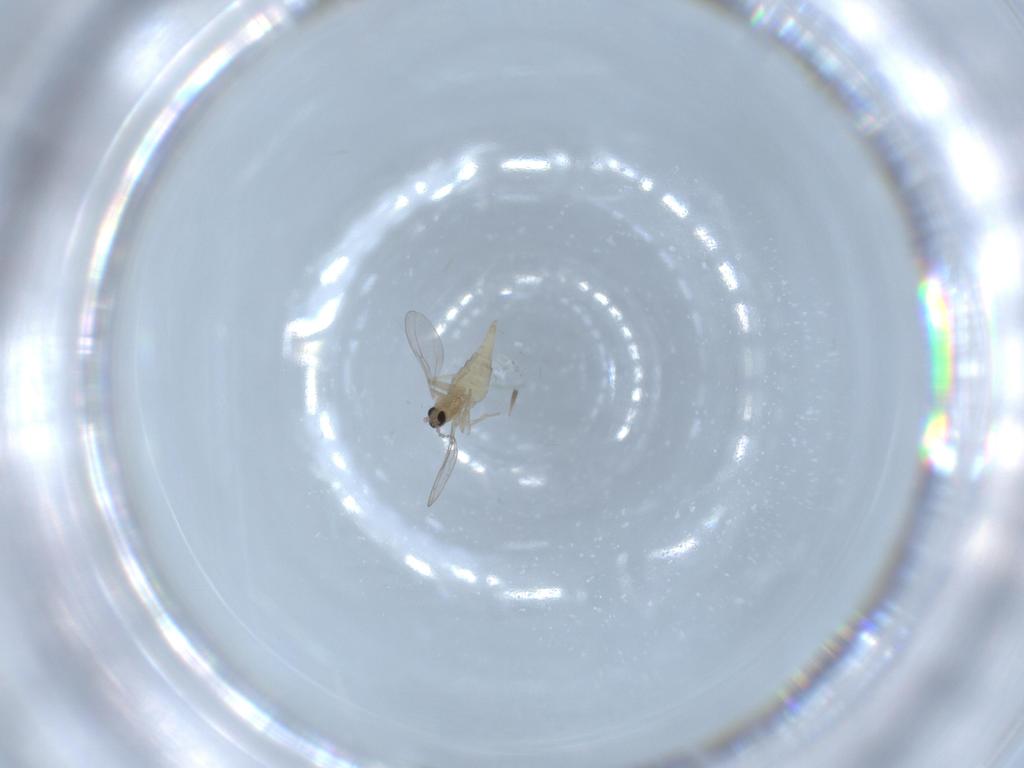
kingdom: Animalia
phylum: Arthropoda
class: Insecta
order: Diptera
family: Cecidomyiidae
